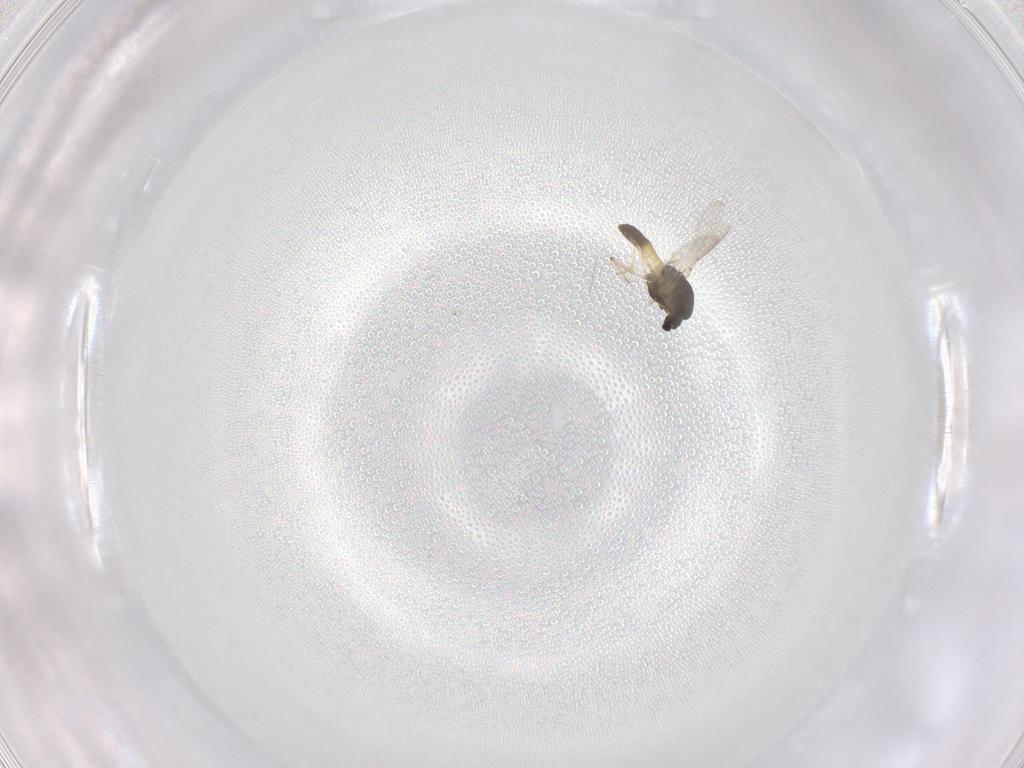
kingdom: Animalia
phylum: Arthropoda
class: Insecta
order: Diptera
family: Chironomidae
